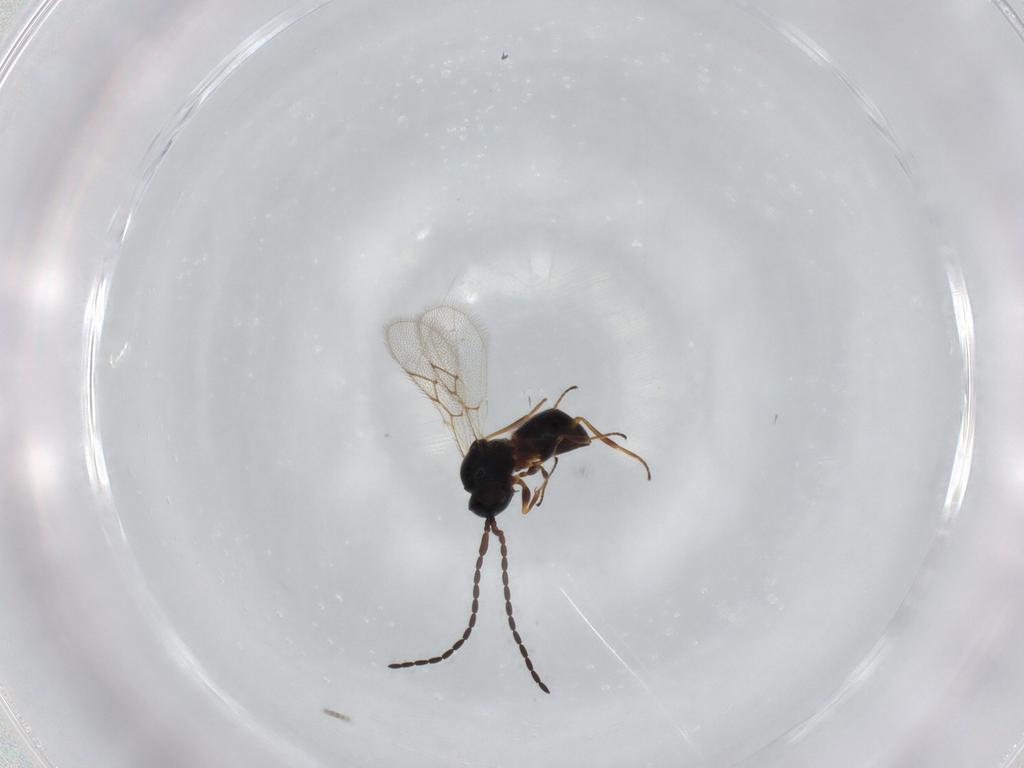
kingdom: Animalia
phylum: Arthropoda
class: Insecta
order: Hymenoptera
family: Figitidae
